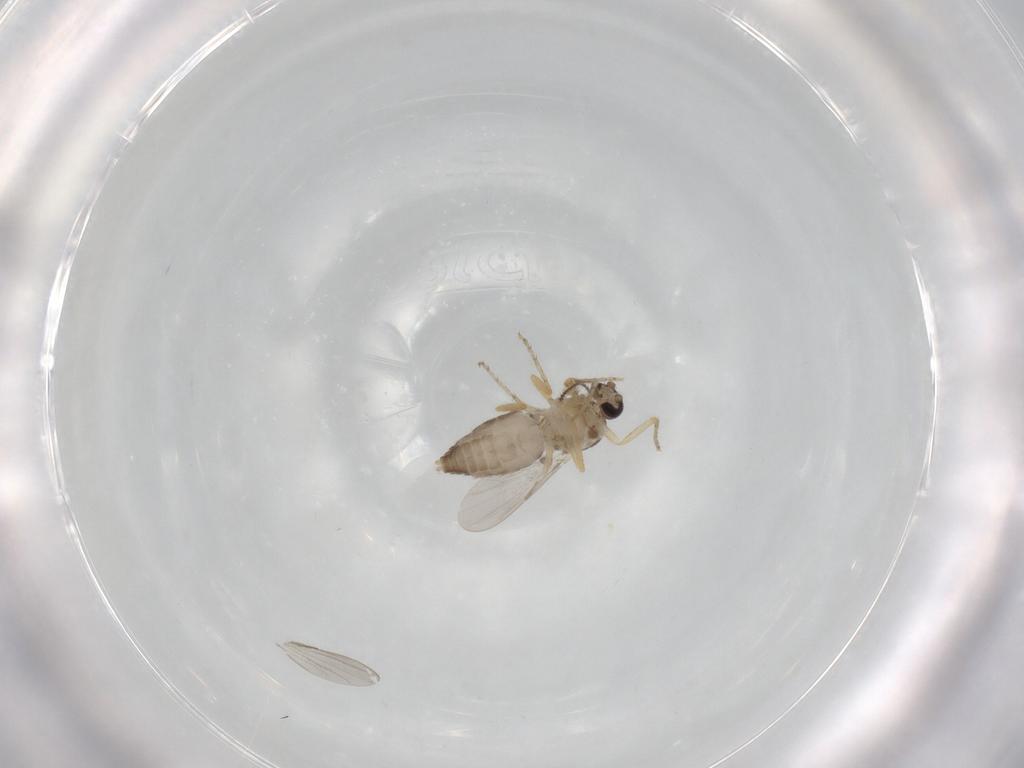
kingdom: Animalia
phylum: Arthropoda
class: Insecta
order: Diptera
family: Ceratopogonidae
